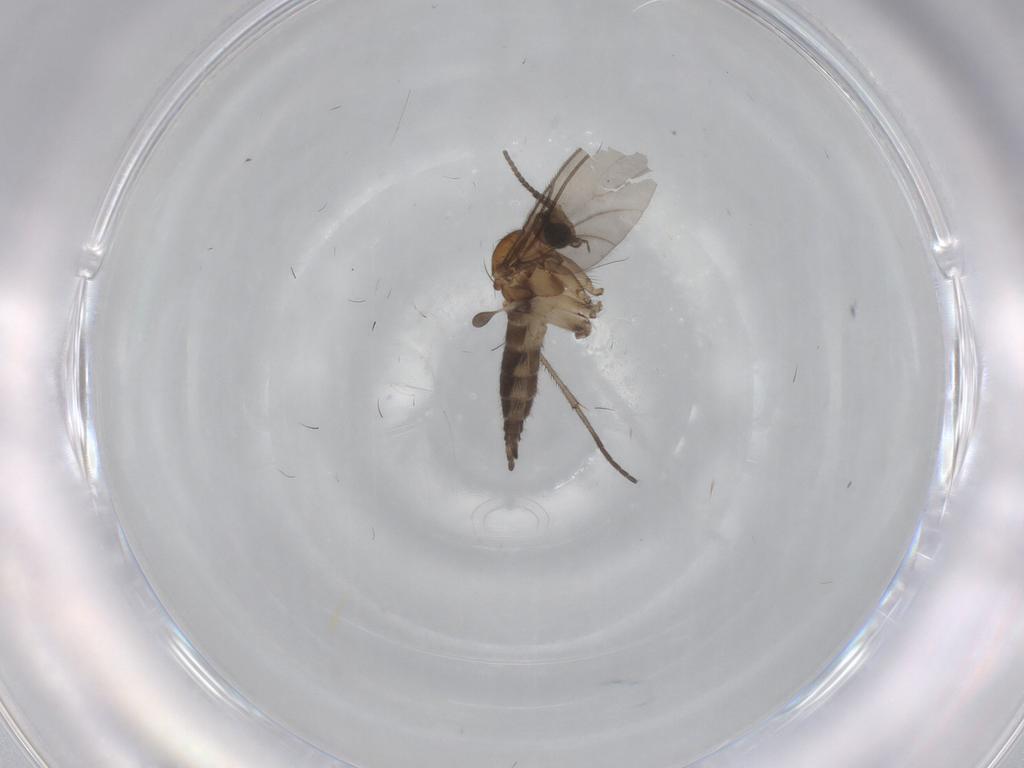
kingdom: Animalia
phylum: Arthropoda
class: Insecta
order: Diptera
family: Sciaridae
